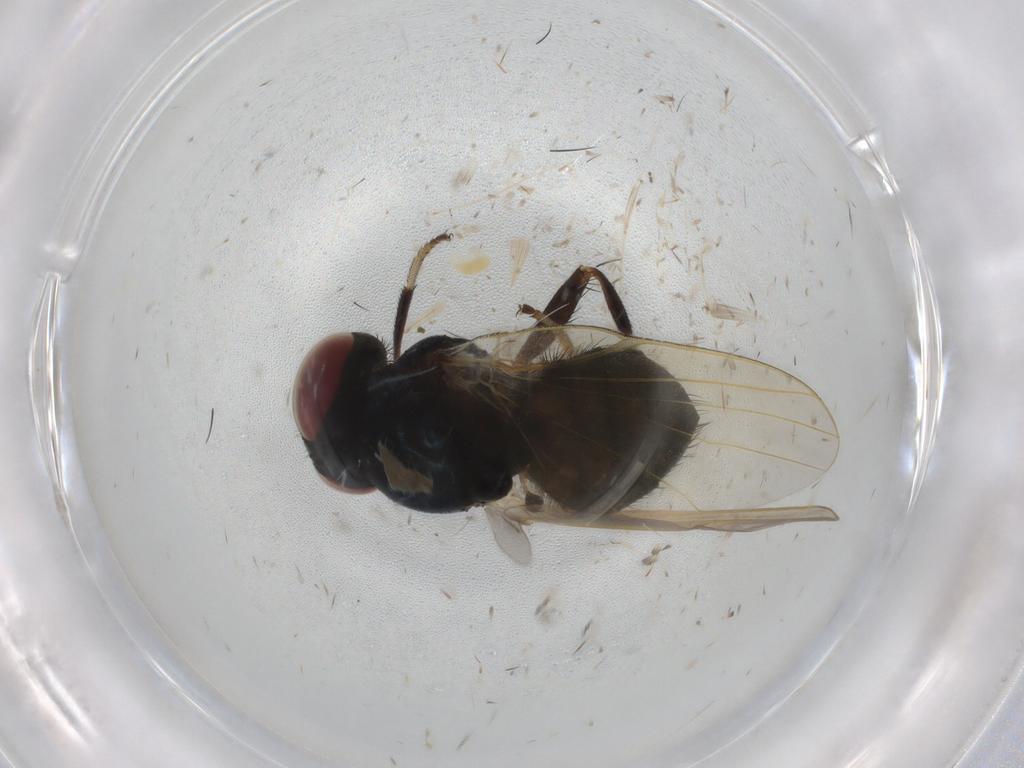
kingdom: Animalia
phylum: Arthropoda
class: Insecta
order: Diptera
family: Lonchaeidae
